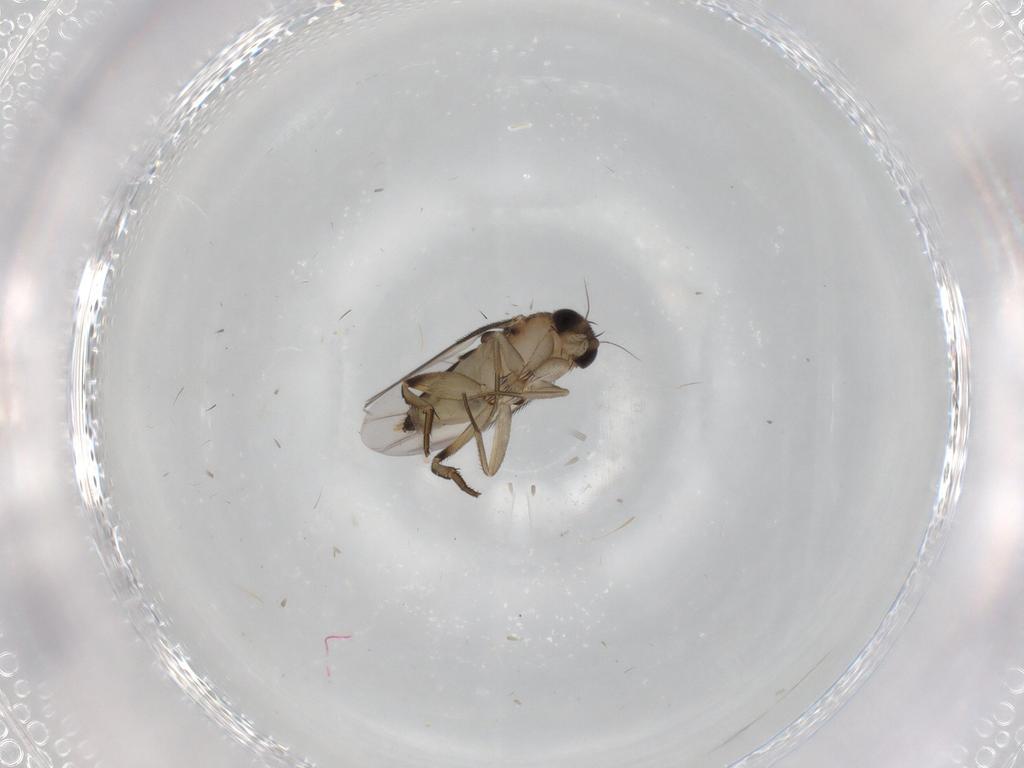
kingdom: Animalia
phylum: Arthropoda
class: Insecta
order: Diptera
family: Phoridae
